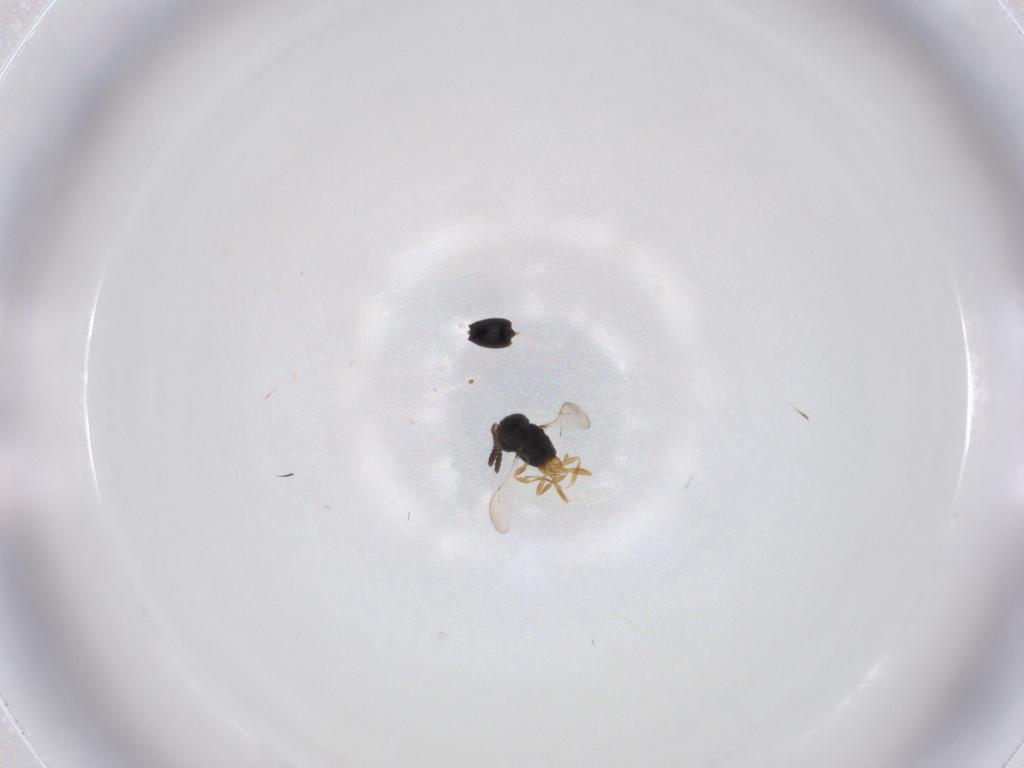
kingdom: Animalia
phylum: Arthropoda
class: Insecta
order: Hymenoptera
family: Scelionidae
